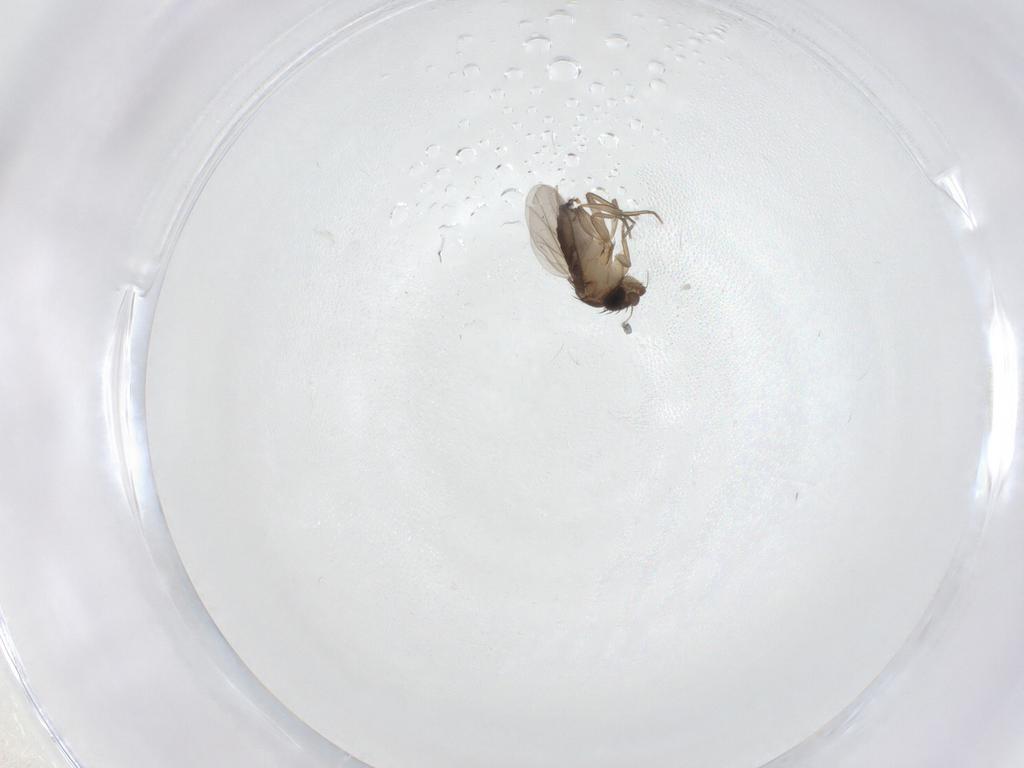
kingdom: Animalia
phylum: Arthropoda
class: Insecta
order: Diptera
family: Phoridae
